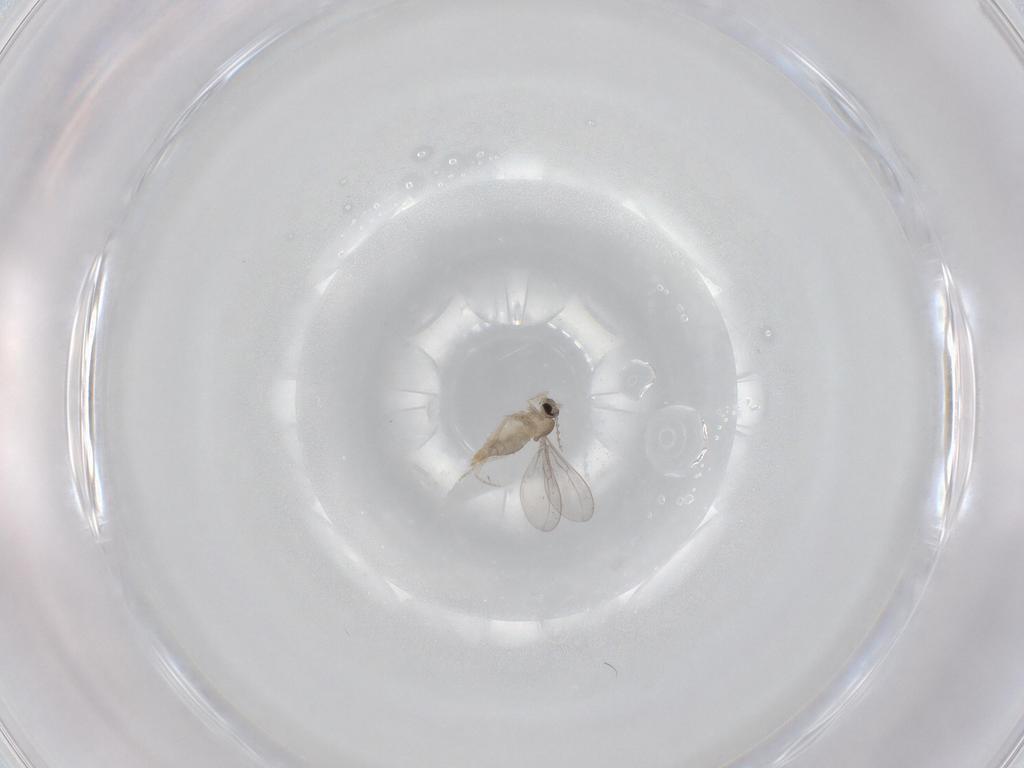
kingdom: Animalia
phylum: Arthropoda
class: Insecta
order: Diptera
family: Cecidomyiidae
